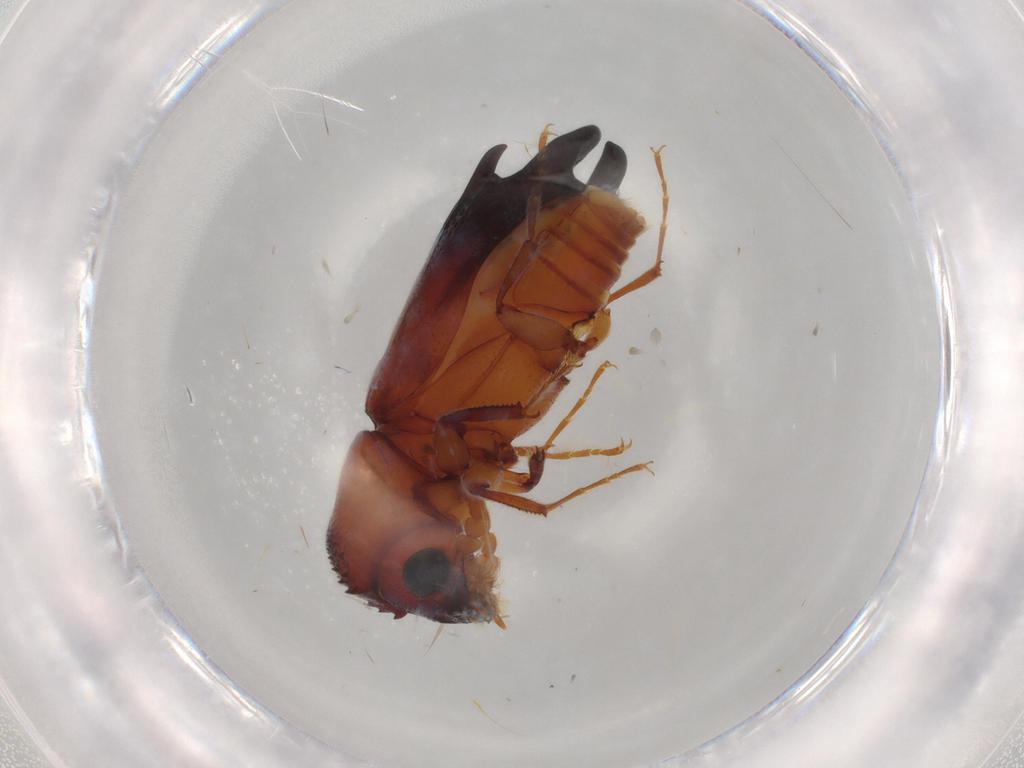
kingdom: Animalia
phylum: Arthropoda
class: Insecta
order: Coleoptera
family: Bostrichidae
